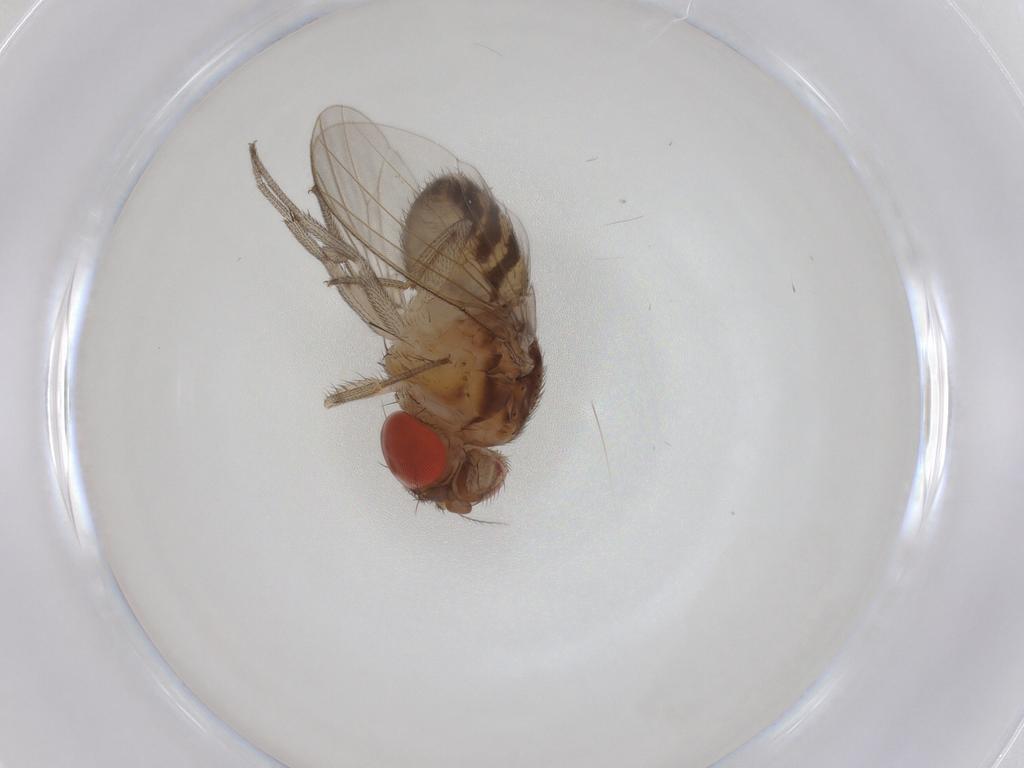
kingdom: Animalia
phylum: Arthropoda
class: Insecta
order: Diptera
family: Drosophilidae
